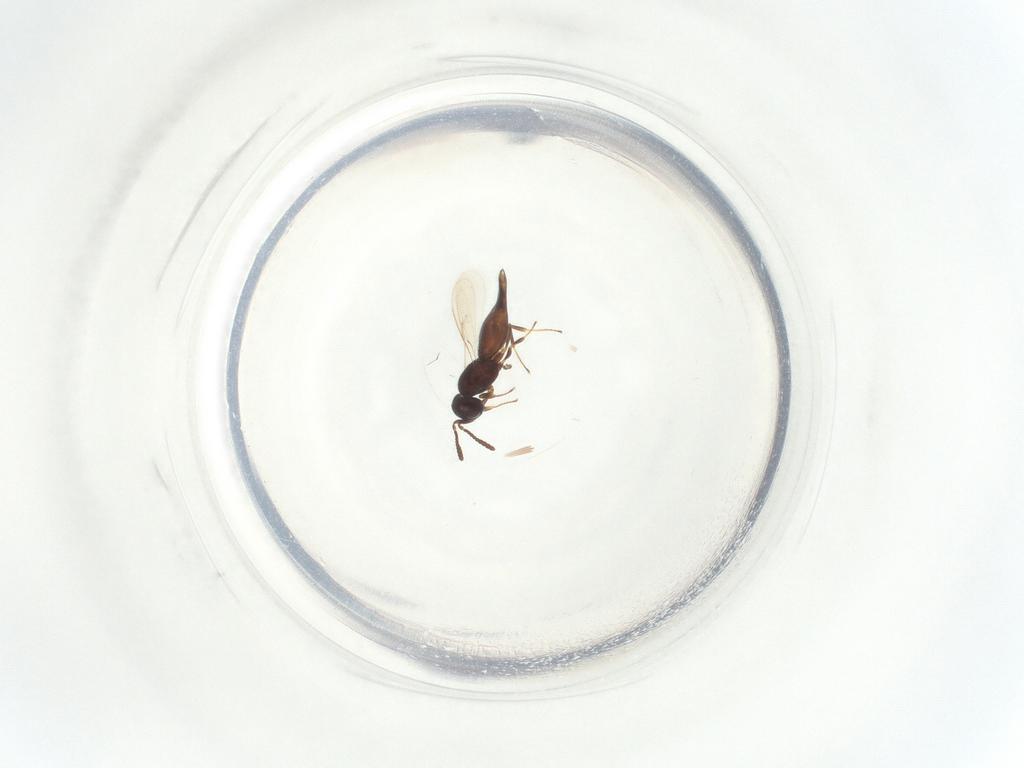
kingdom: Animalia
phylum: Arthropoda
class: Insecta
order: Hymenoptera
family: Scelionidae
